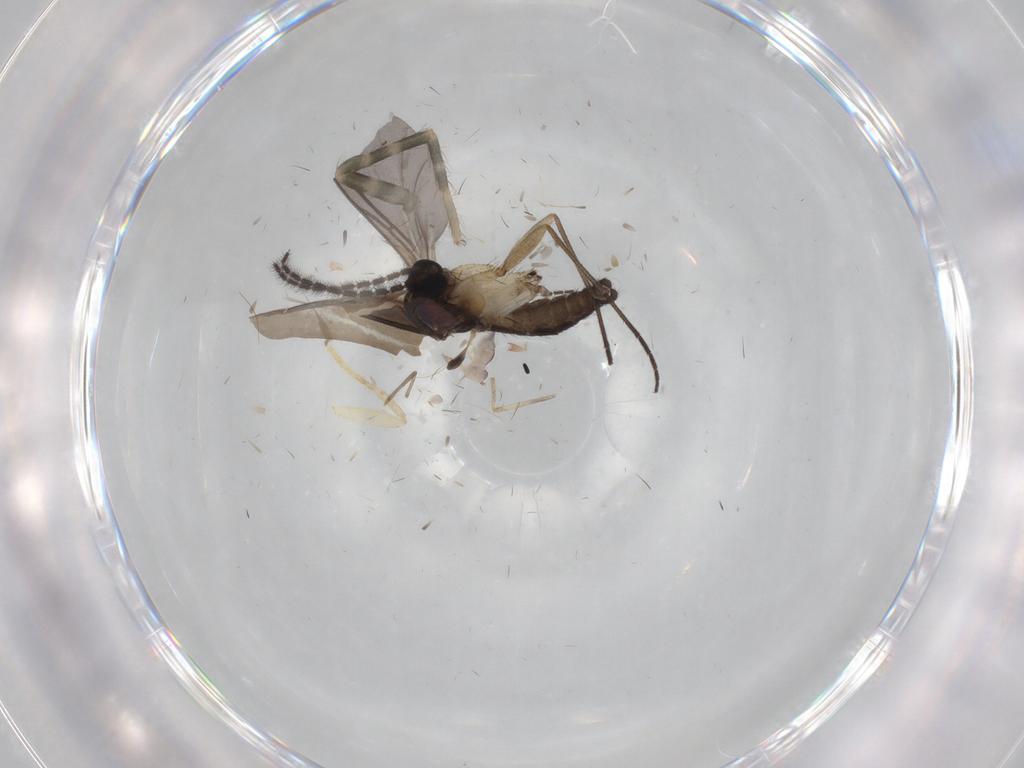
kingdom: Animalia
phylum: Arthropoda
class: Insecta
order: Diptera
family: Sciaridae
